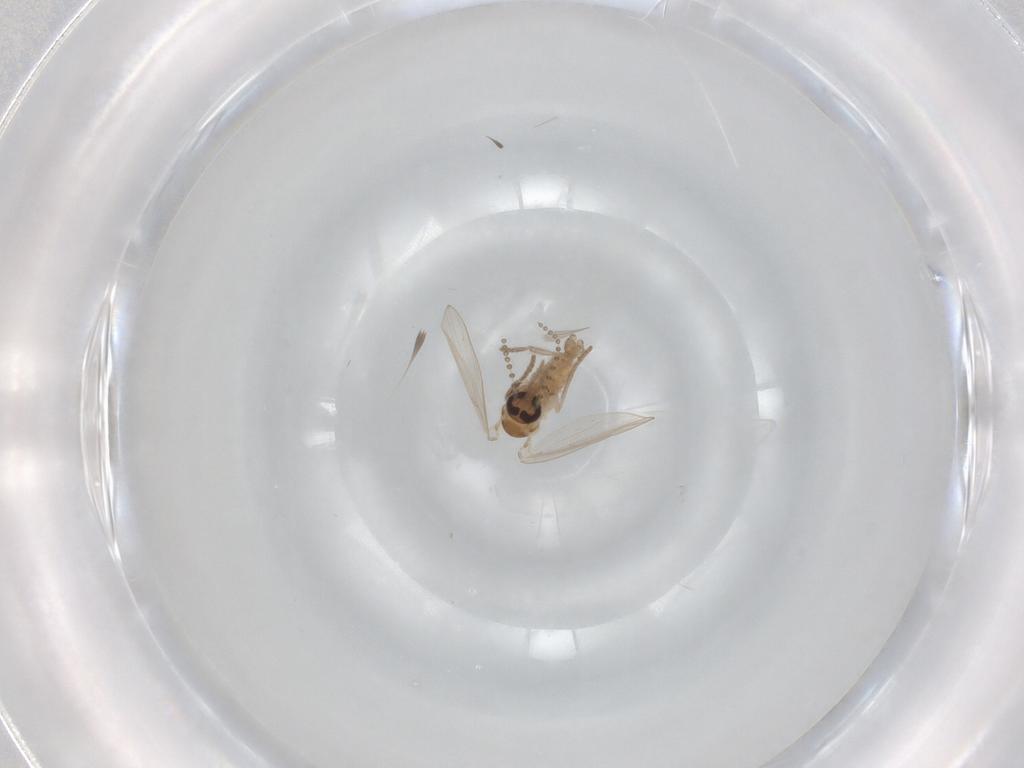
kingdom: Animalia
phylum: Arthropoda
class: Insecta
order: Diptera
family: Psychodidae
